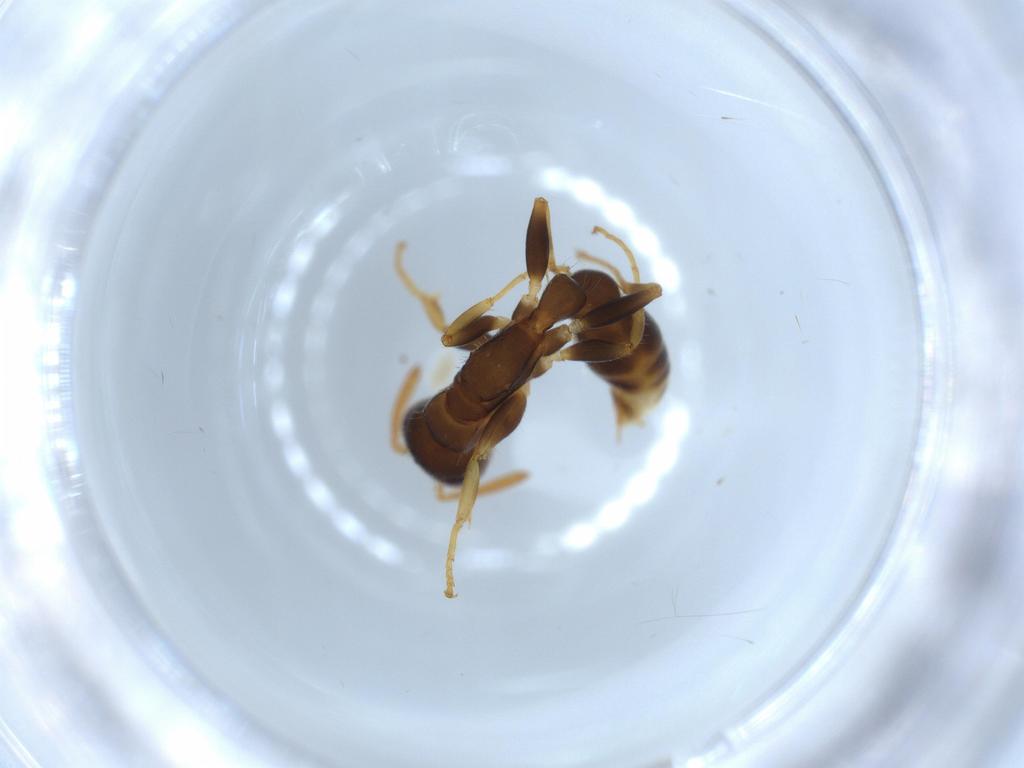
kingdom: Animalia
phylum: Arthropoda
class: Insecta
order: Hymenoptera
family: Formicidae
